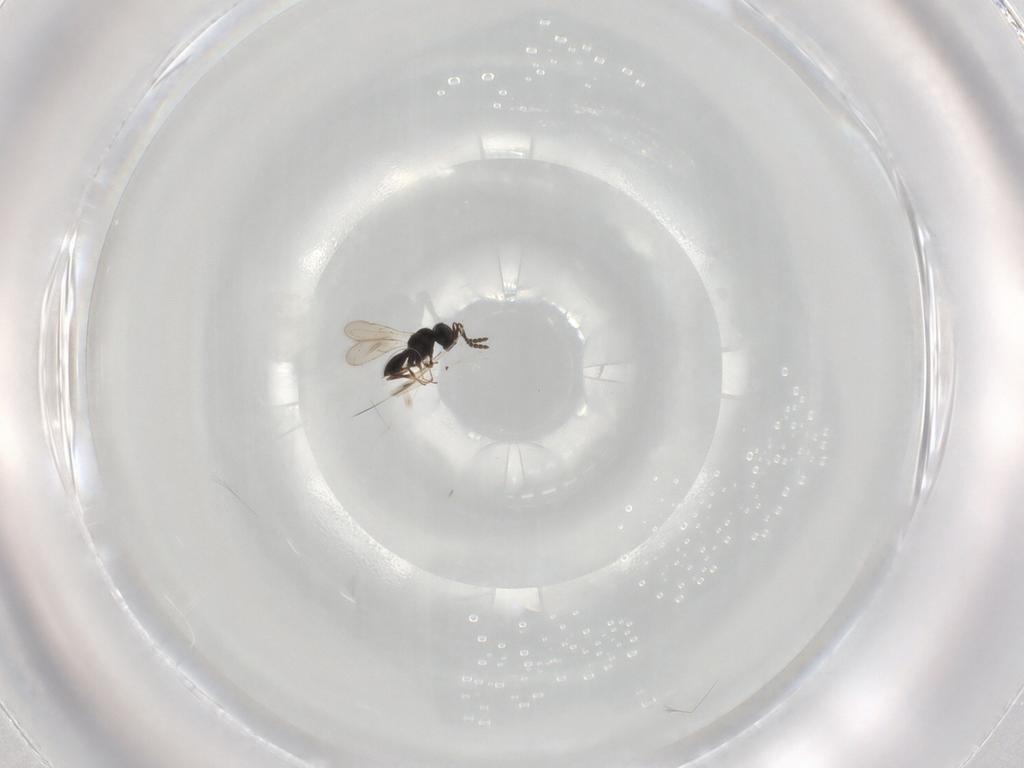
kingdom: Animalia
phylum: Arthropoda
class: Insecta
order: Hymenoptera
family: Scelionidae
